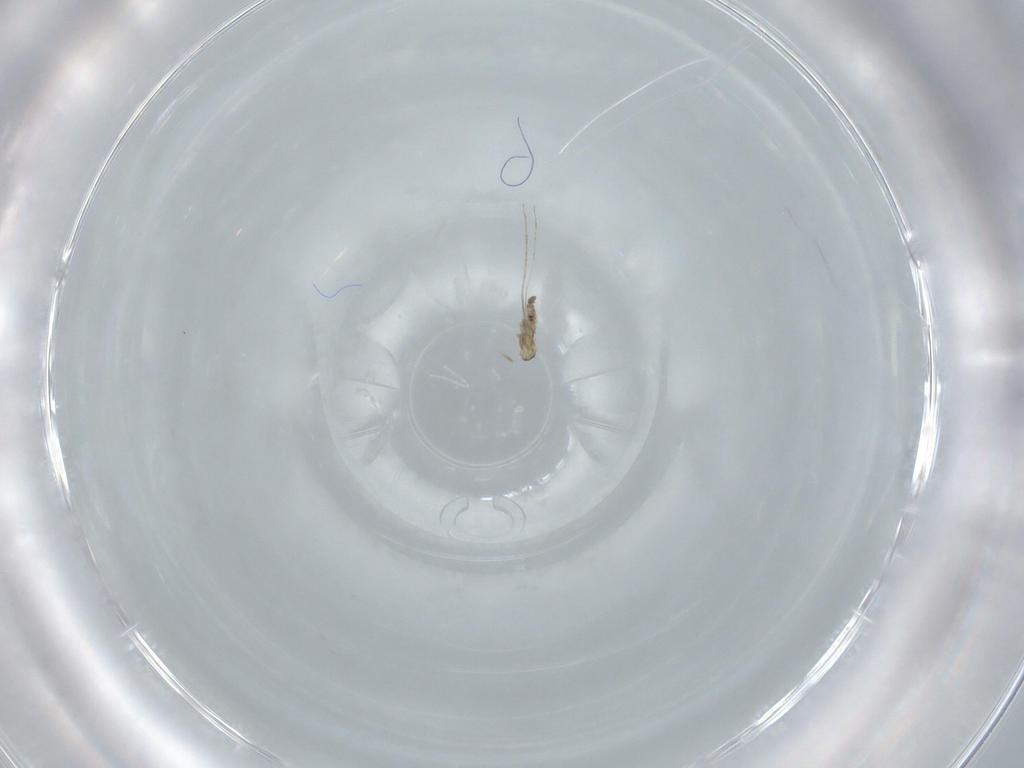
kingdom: Animalia
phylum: Arthropoda
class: Insecta
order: Diptera
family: Cecidomyiidae
